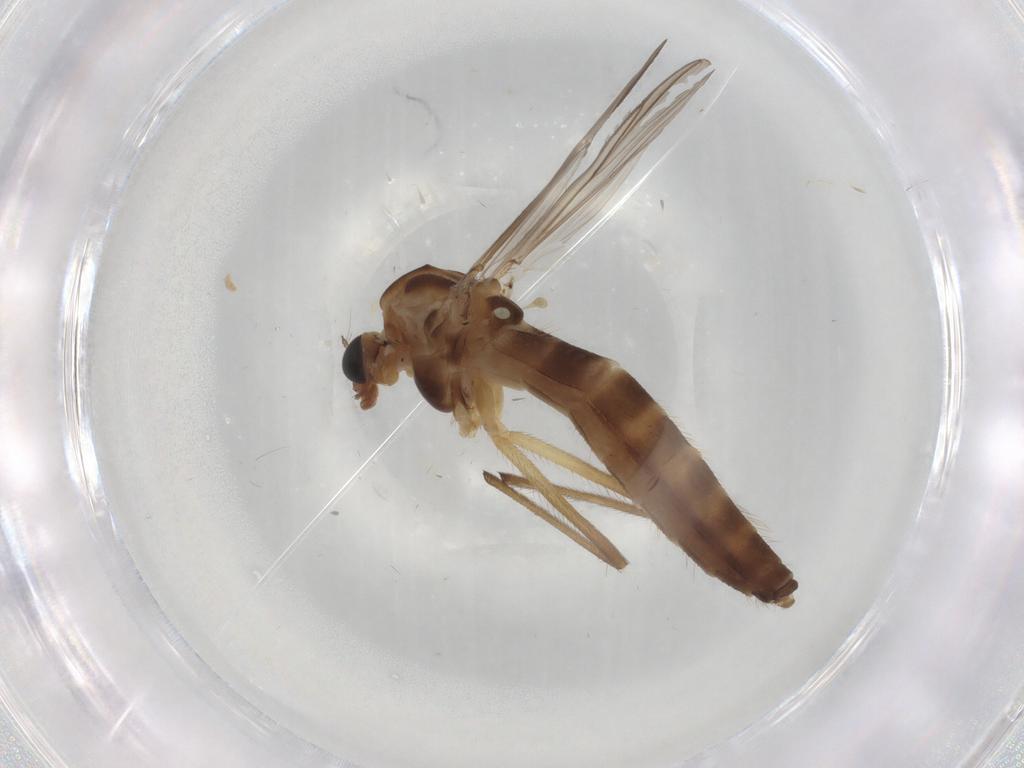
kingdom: Animalia
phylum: Arthropoda
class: Insecta
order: Diptera
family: Chironomidae
